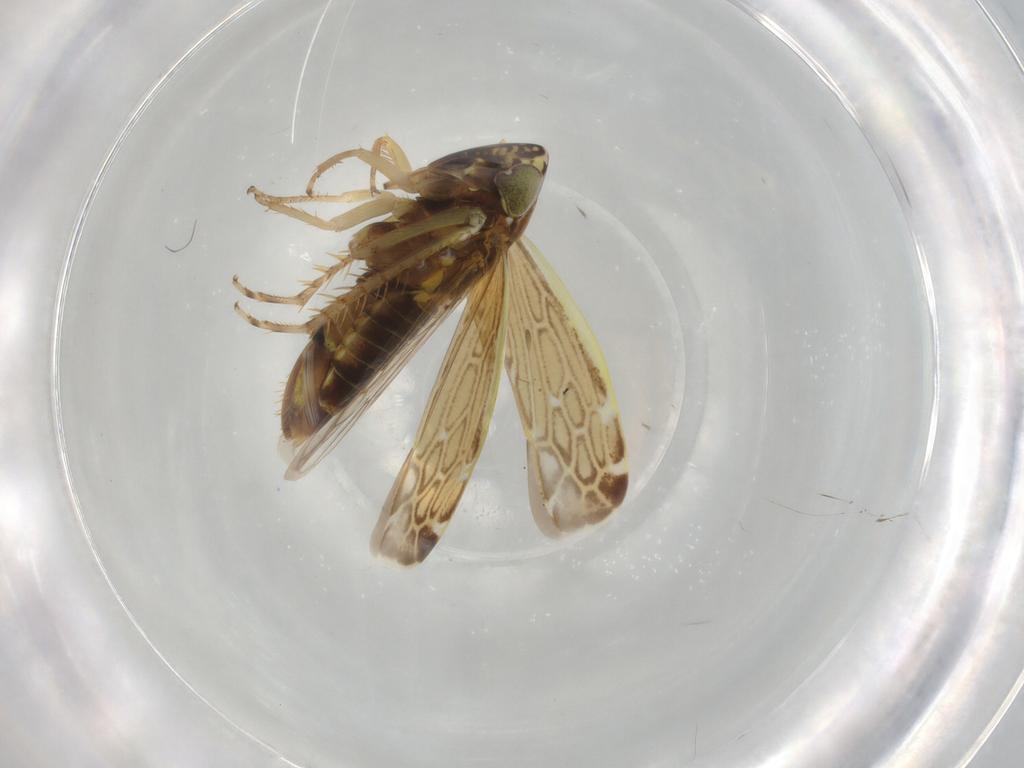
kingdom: Animalia
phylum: Arthropoda
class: Insecta
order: Hemiptera
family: Cicadellidae
